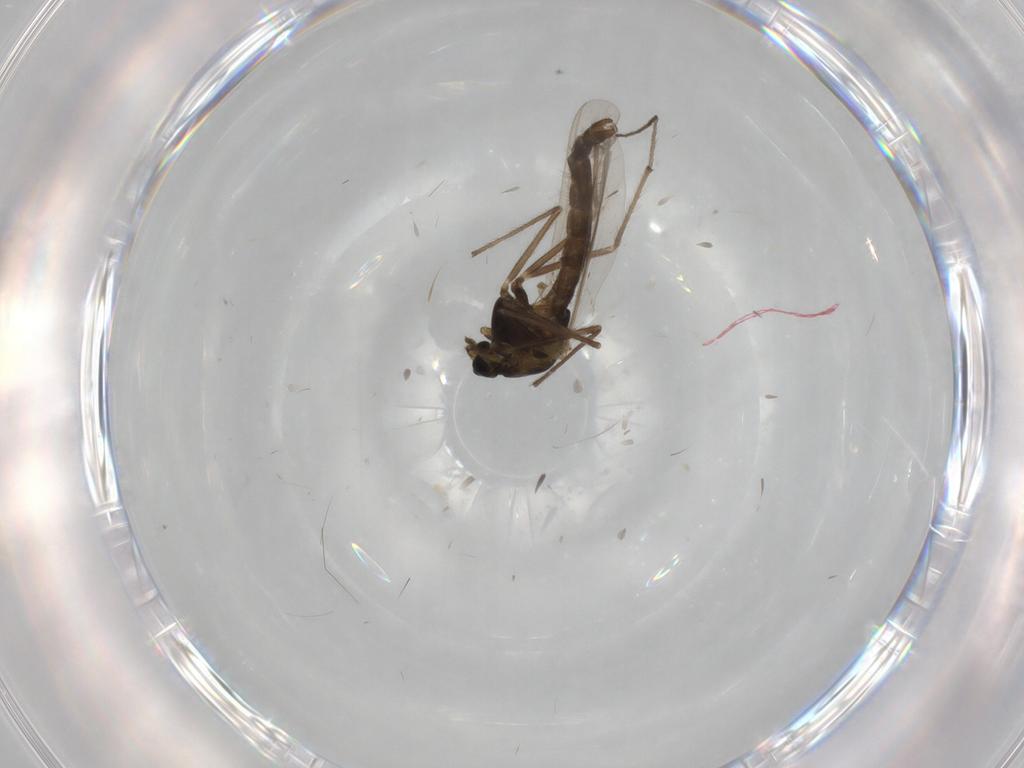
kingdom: Animalia
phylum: Arthropoda
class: Insecta
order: Diptera
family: Chironomidae
